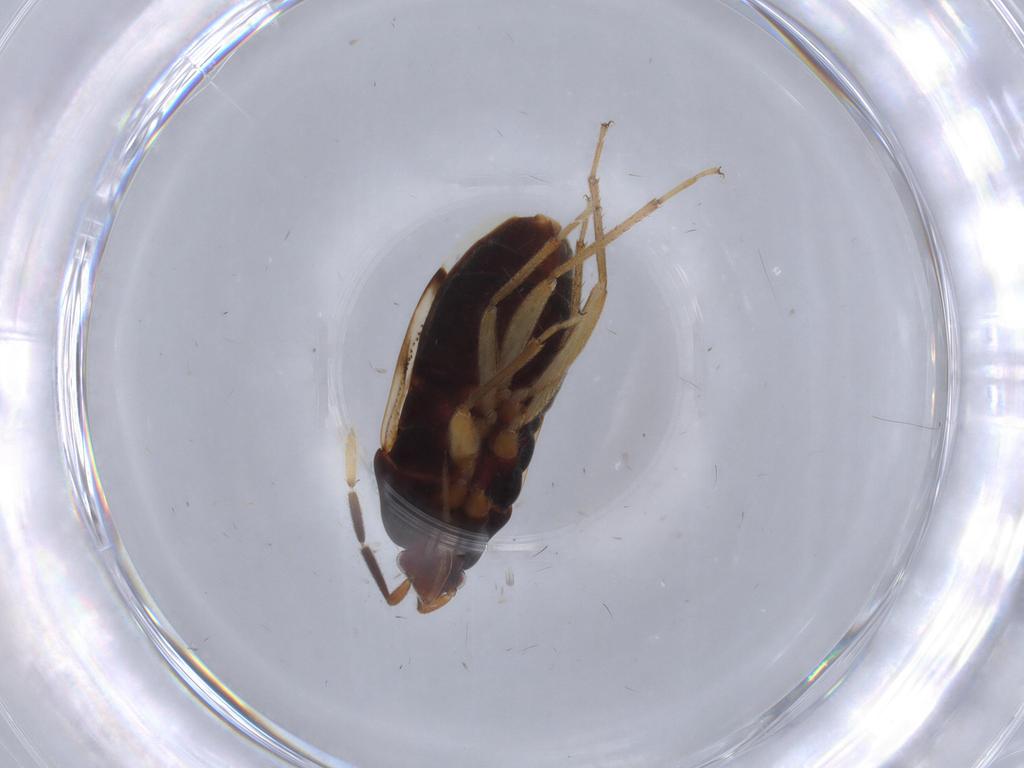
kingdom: Animalia
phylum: Arthropoda
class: Insecta
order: Hemiptera
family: Rhyparochromidae
